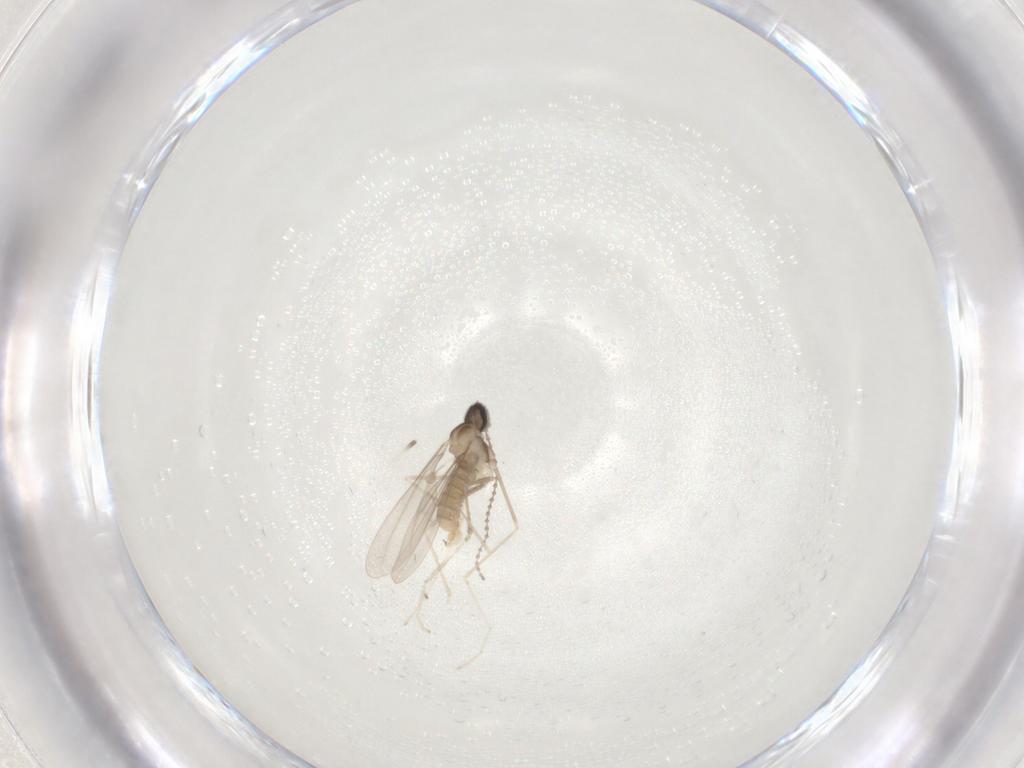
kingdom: Animalia
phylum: Arthropoda
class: Insecta
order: Diptera
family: Cecidomyiidae
